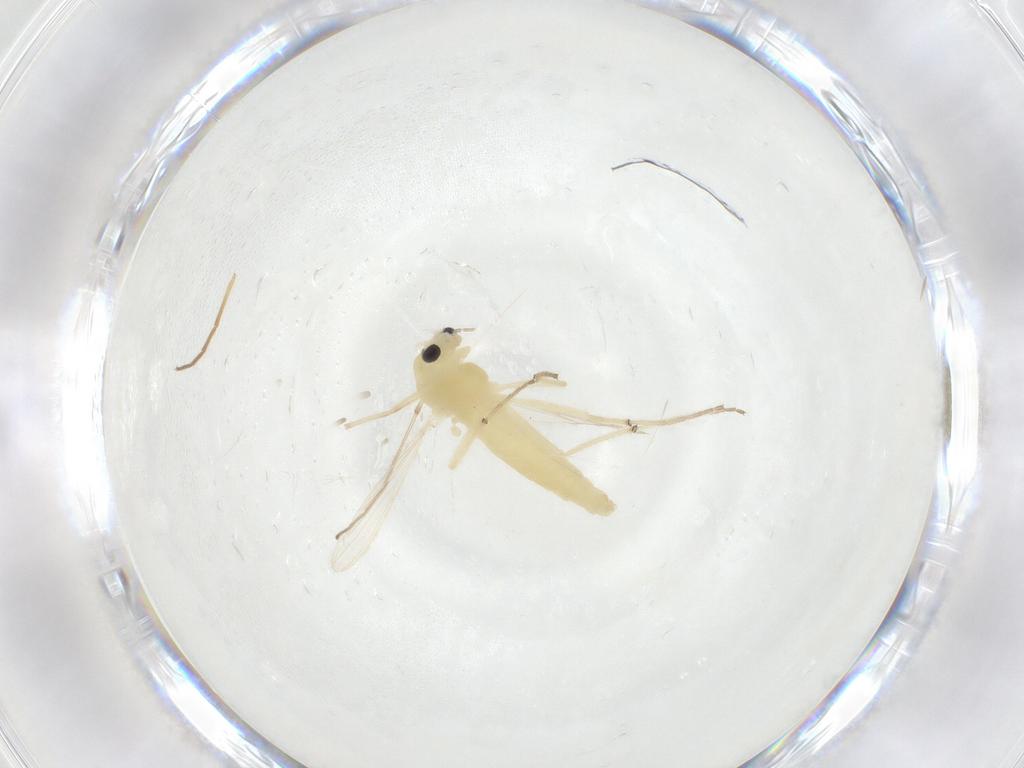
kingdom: Animalia
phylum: Arthropoda
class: Insecta
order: Diptera
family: Chironomidae
